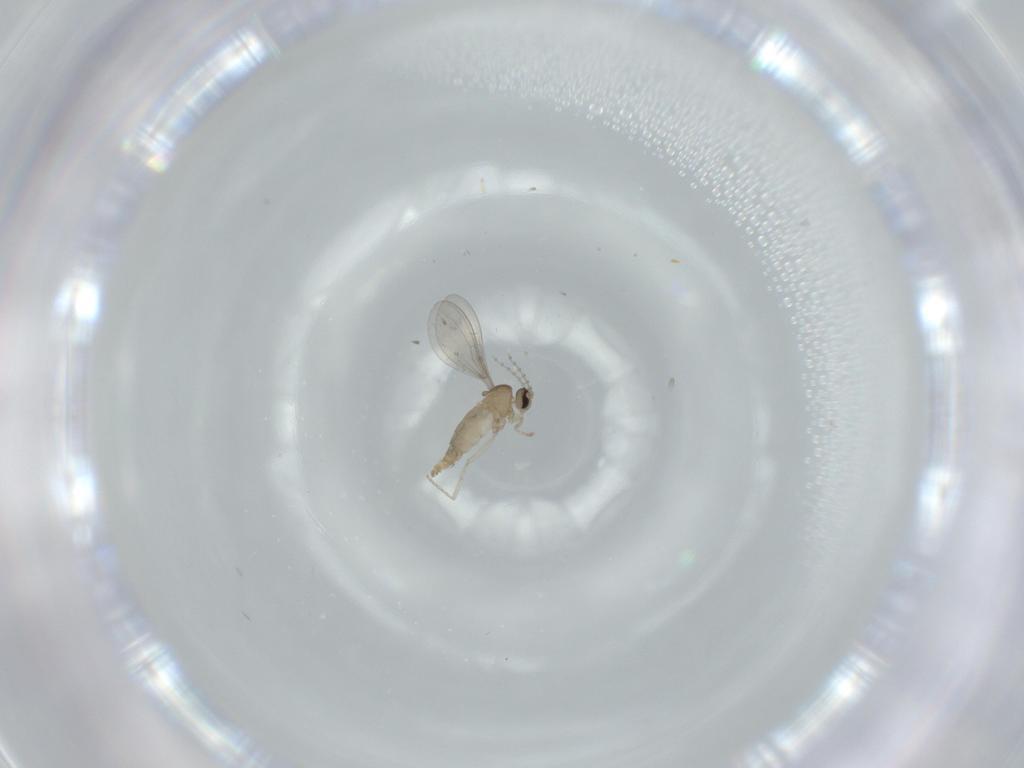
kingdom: Animalia
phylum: Arthropoda
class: Insecta
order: Diptera
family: Cecidomyiidae
